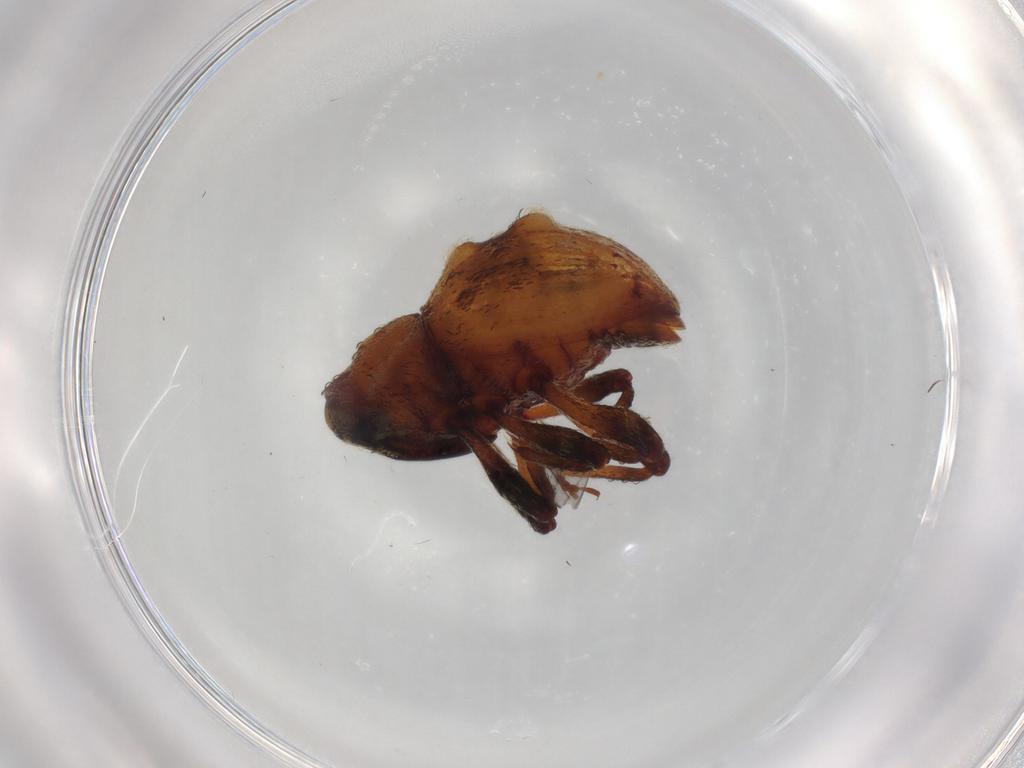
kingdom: Animalia
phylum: Arthropoda
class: Insecta
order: Coleoptera
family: Curculionidae
